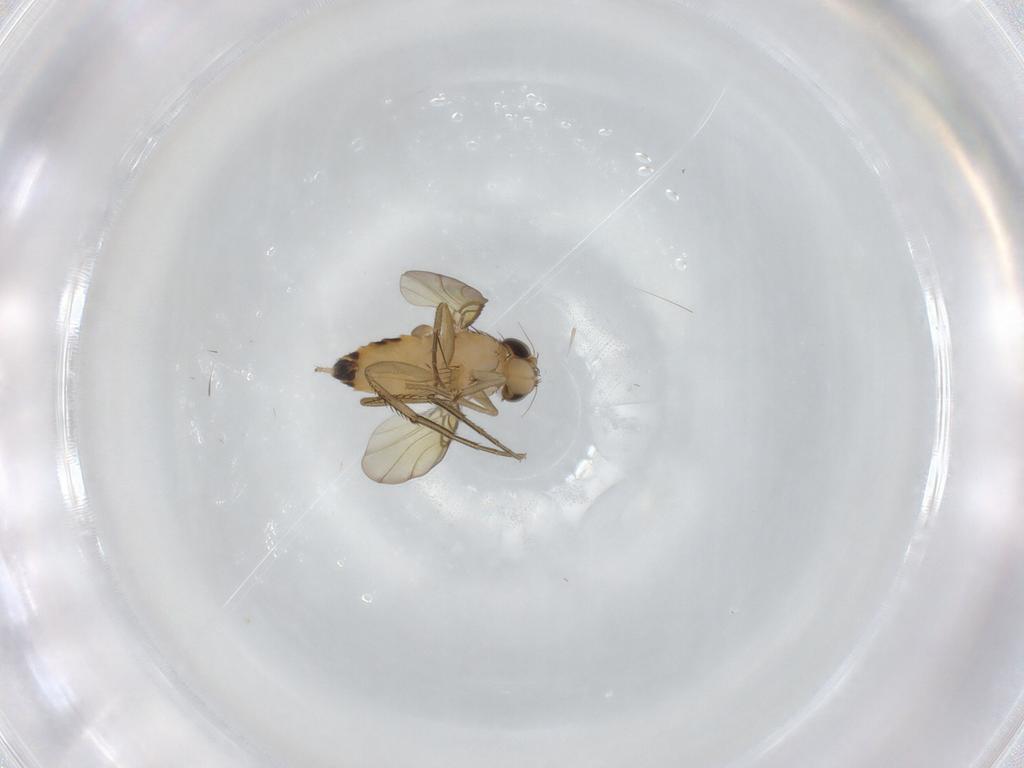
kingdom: Animalia
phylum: Arthropoda
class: Insecta
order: Diptera
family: Phoridae
